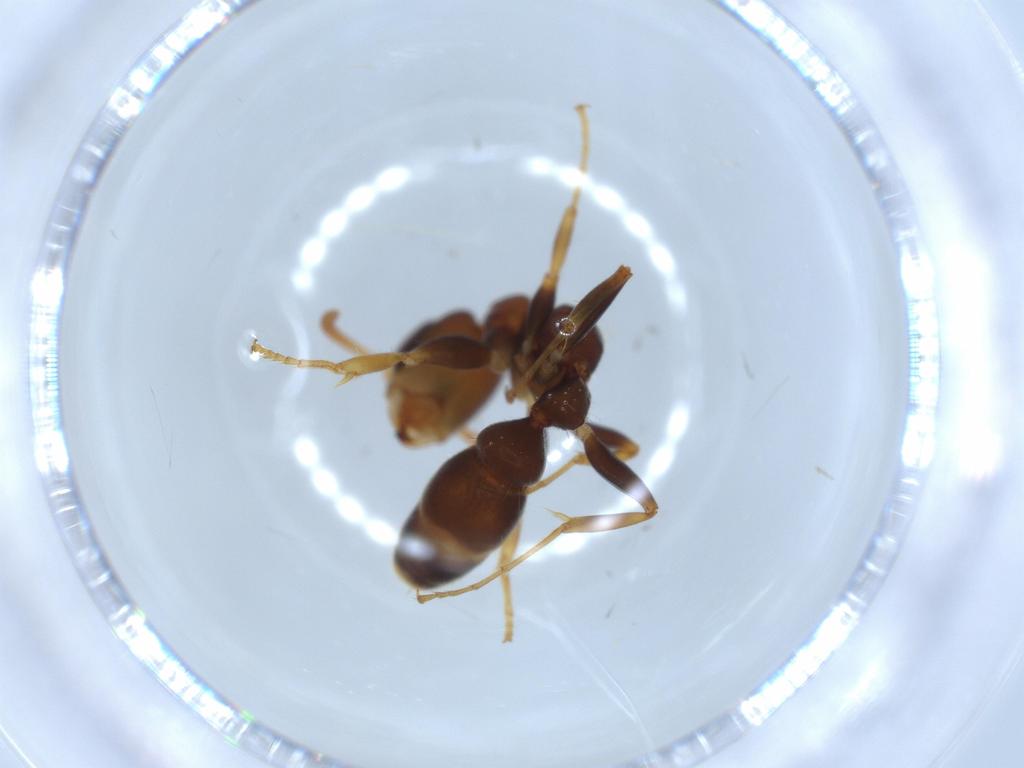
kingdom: Animalia
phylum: Arthropoda
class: Insecta
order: Hymenoptera
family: Formicidae
